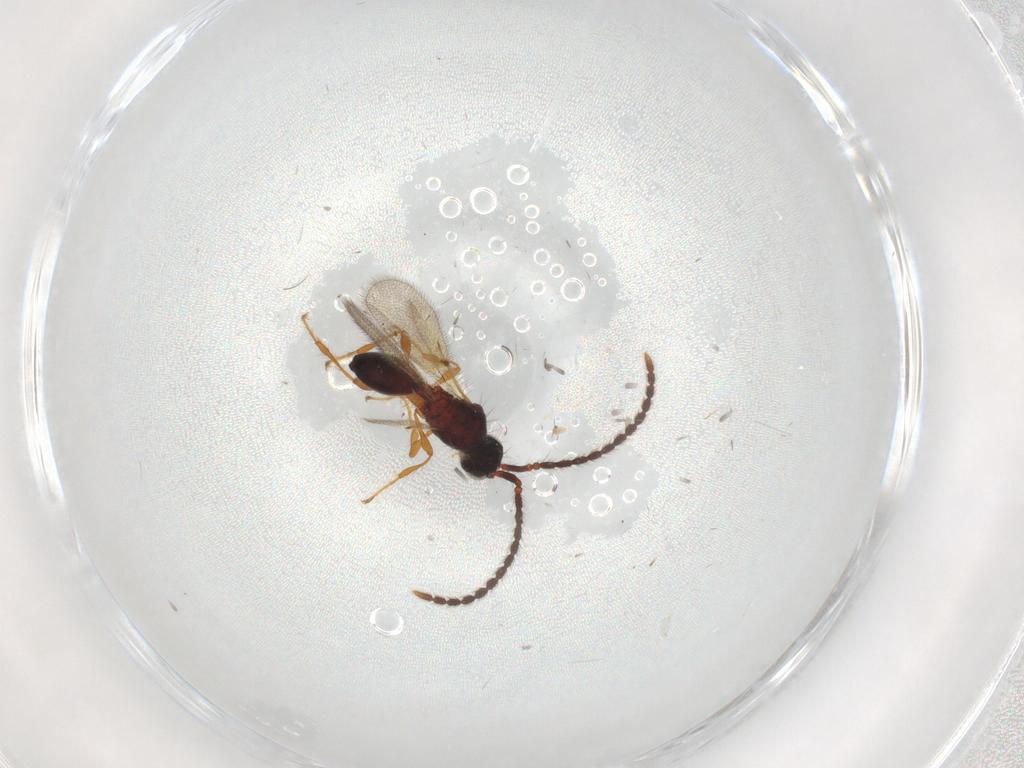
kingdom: Animalia
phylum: Arthropoda
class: Insecta
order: Hymenoptera
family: Diapriidae
